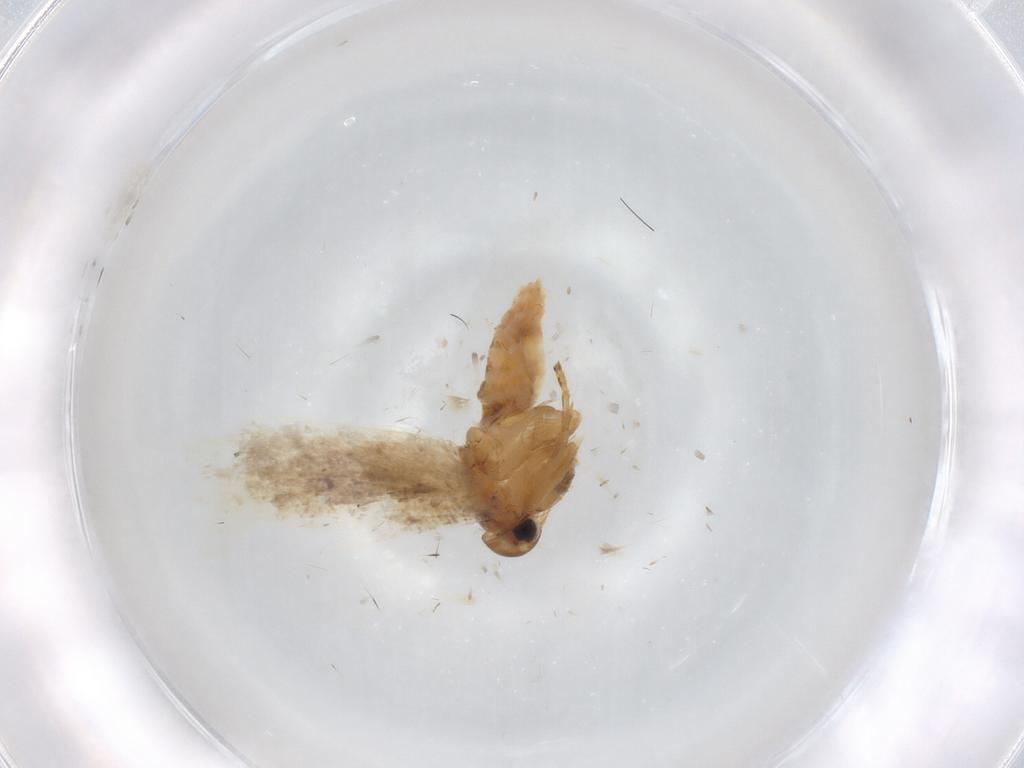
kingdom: Animalia
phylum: Arthropoda
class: Insecta
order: Lepidoptera
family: Gelechiidae
